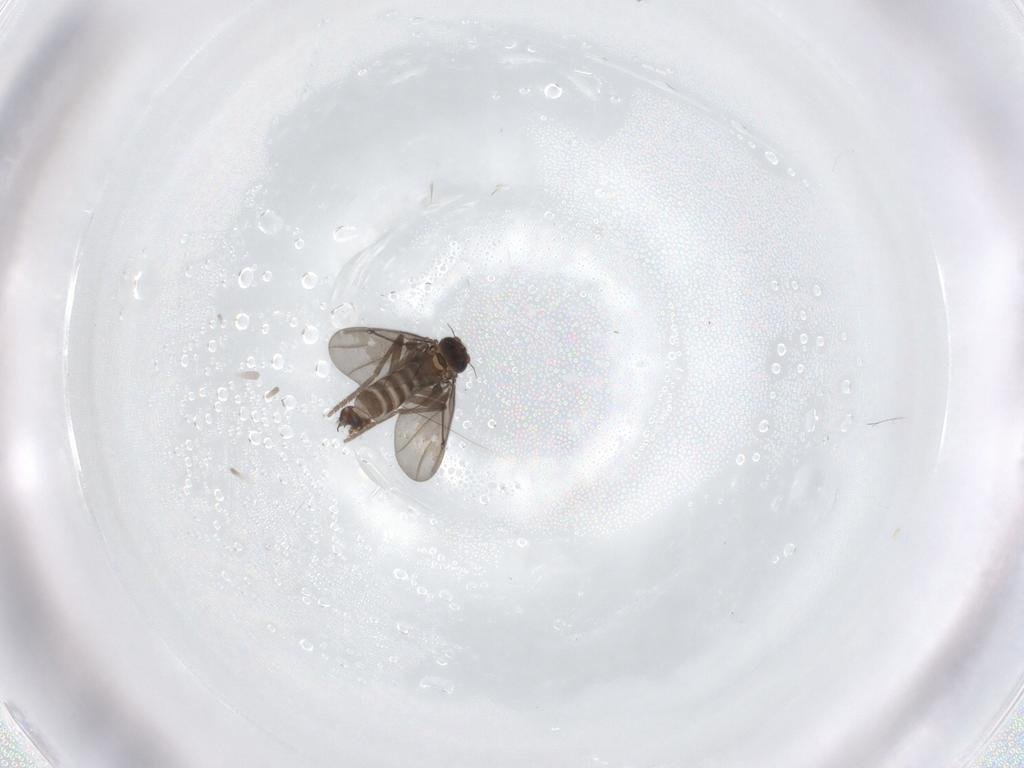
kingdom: Animalia
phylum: Arthropoda
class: Insecta
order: Diptera
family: Phoridae
